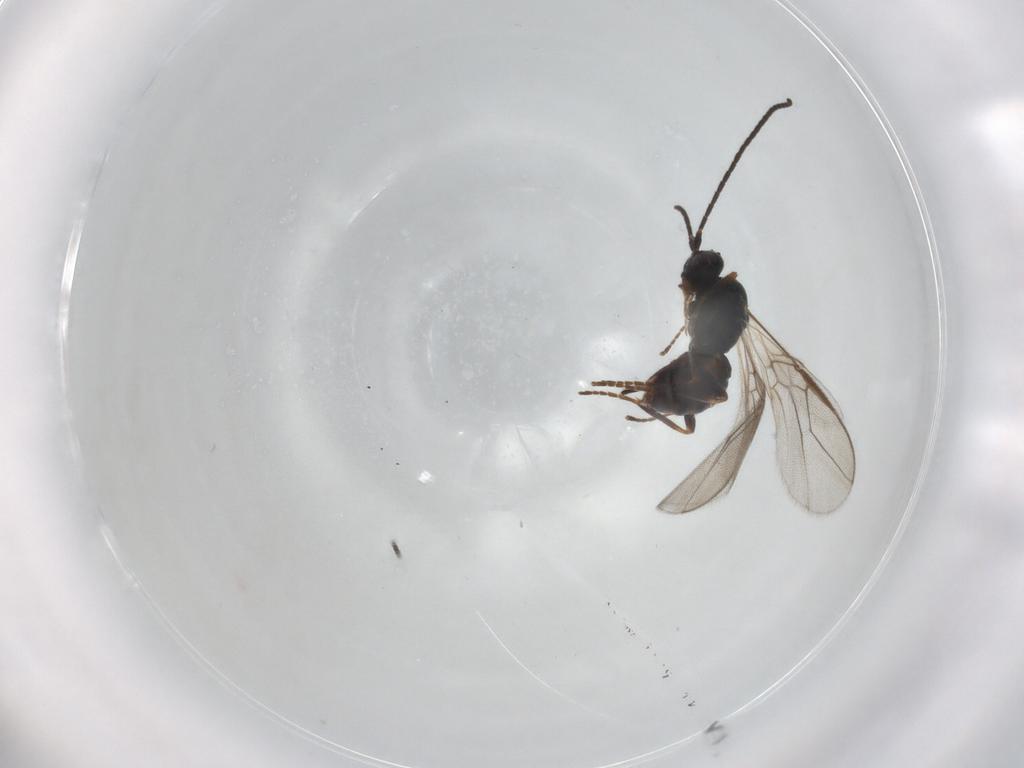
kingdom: Animalia
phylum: Arthropoda
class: Insecta
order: Hymenoptera
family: Braconidae
